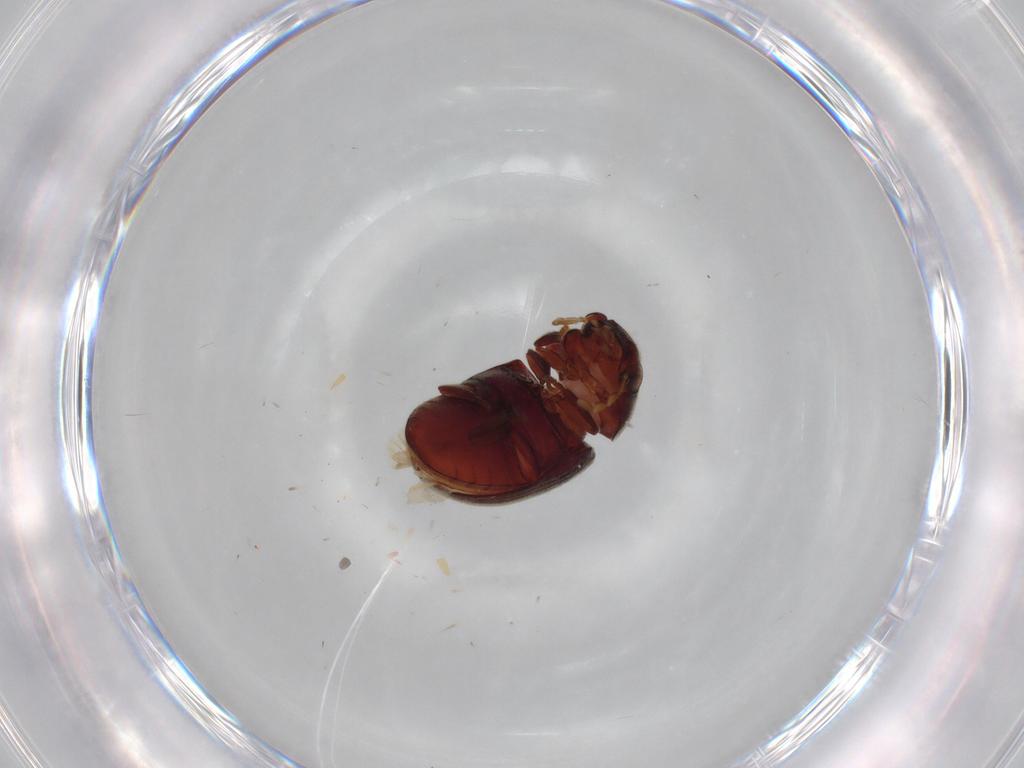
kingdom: Animalia
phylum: Arthropoda
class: Insecta
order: Coleoptera
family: Ptinidae
